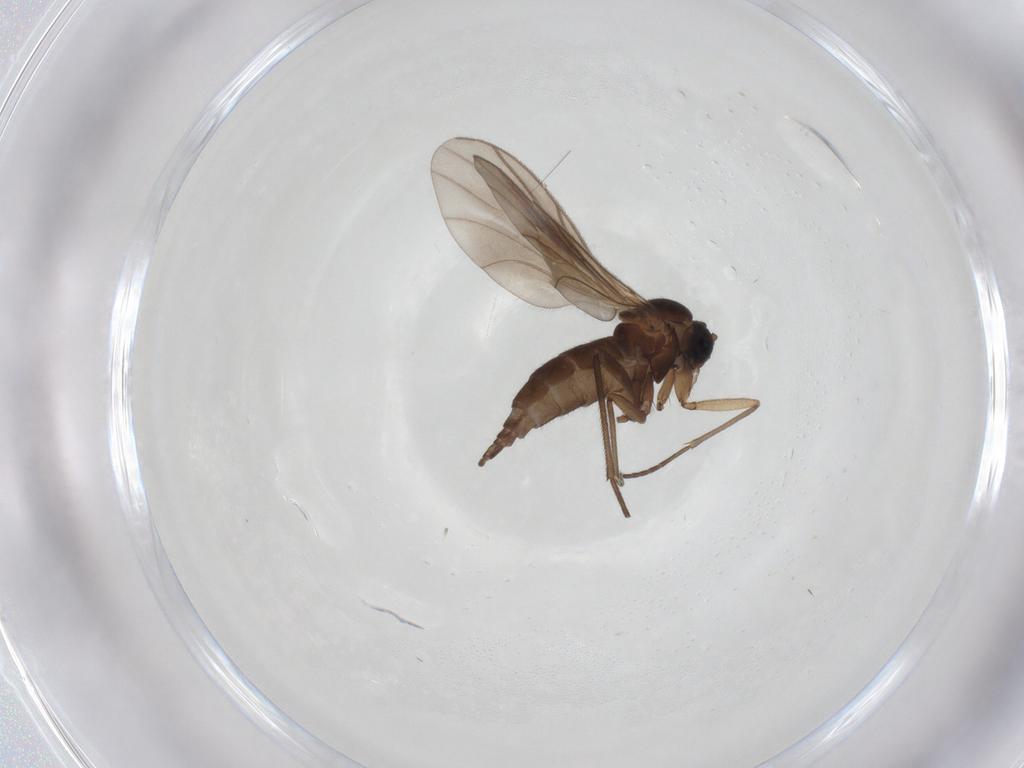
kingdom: Animalia
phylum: Arthropoda
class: Insecta
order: Diptera
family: Sciaridae
